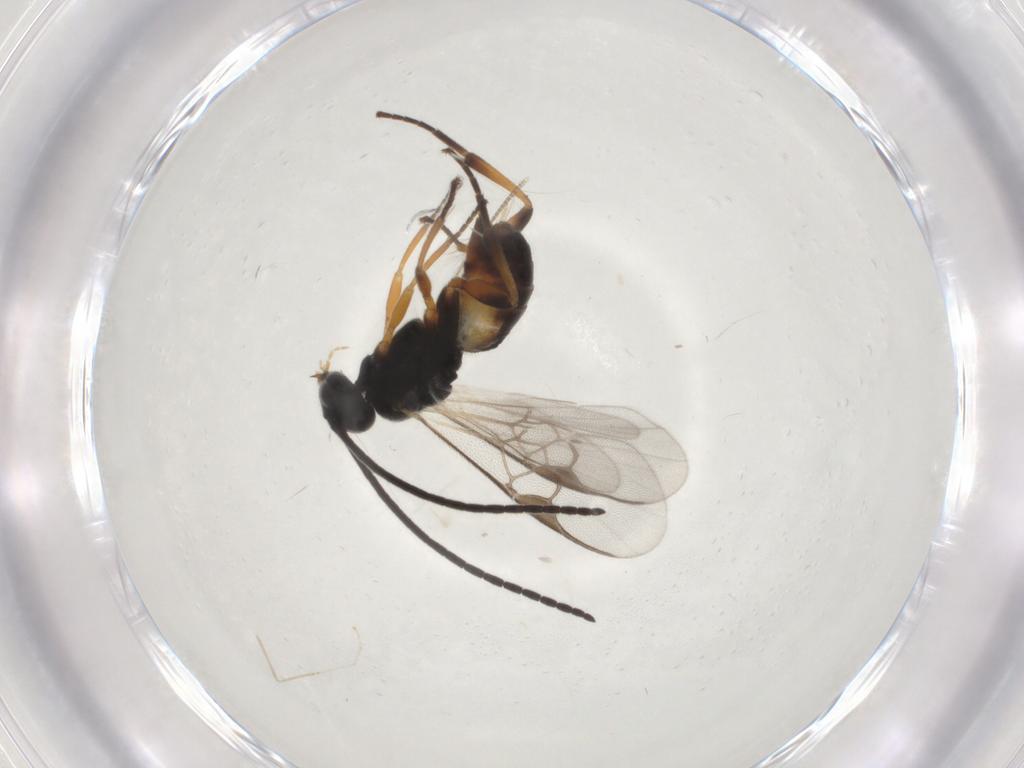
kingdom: Animalia
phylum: Arthropoda
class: Insecta
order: Hymenoptera
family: Braconidae
